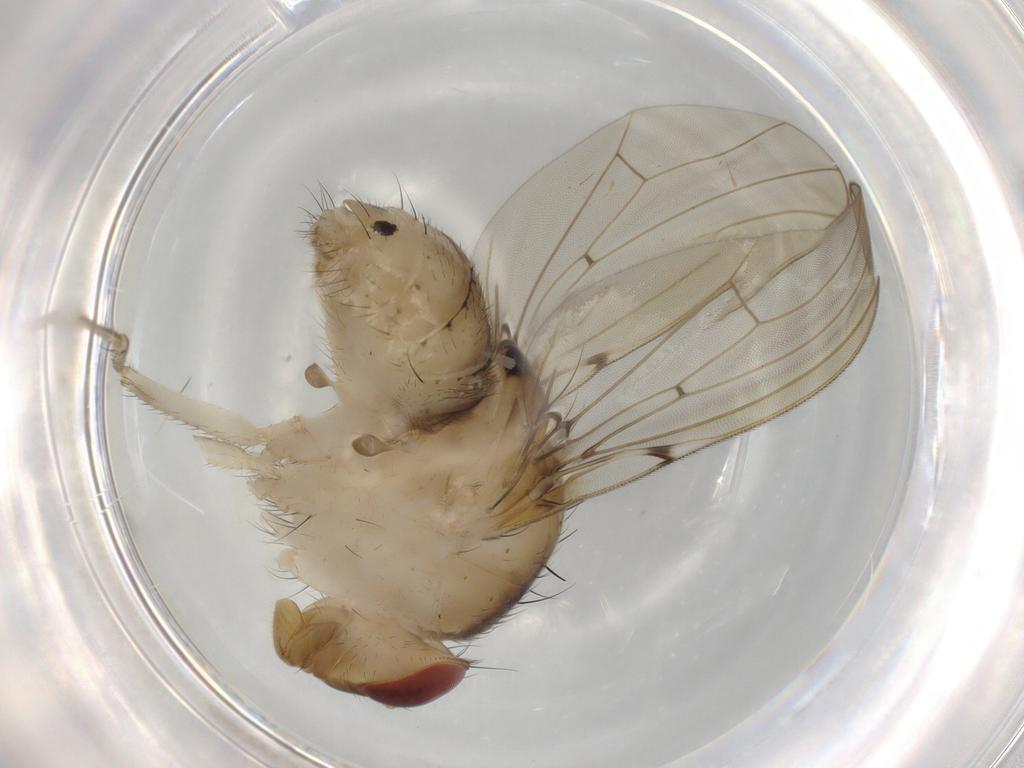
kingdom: Animalia
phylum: Arthropoda
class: Insecta
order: Diptera
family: Lauxaniidae
